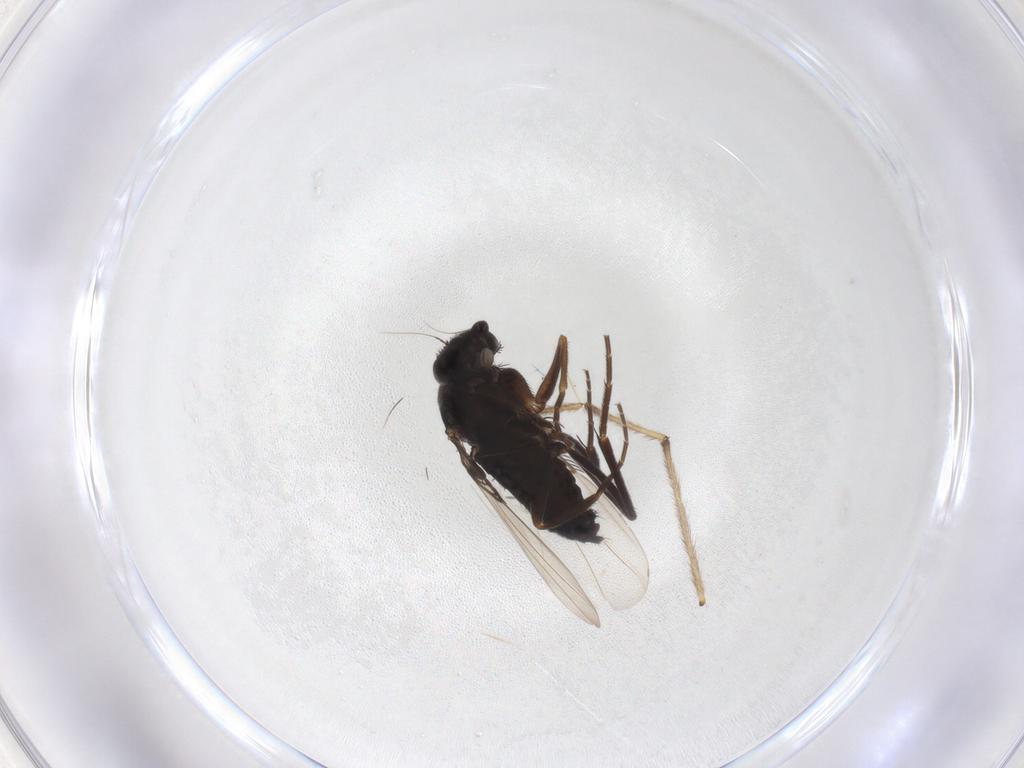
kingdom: Animalia
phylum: Arthropoda
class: Insecta
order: Diptera
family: Phoridae
